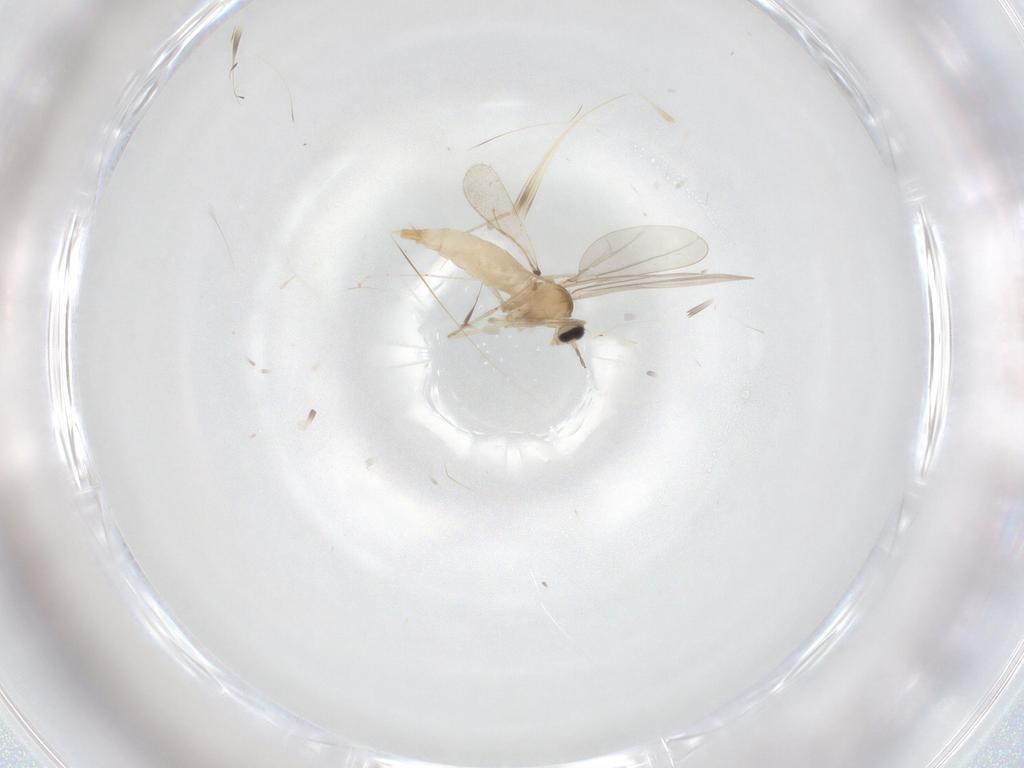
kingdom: Animalia
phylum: Arthropoda
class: Insecta
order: Diptera
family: Cecidomyiidae
